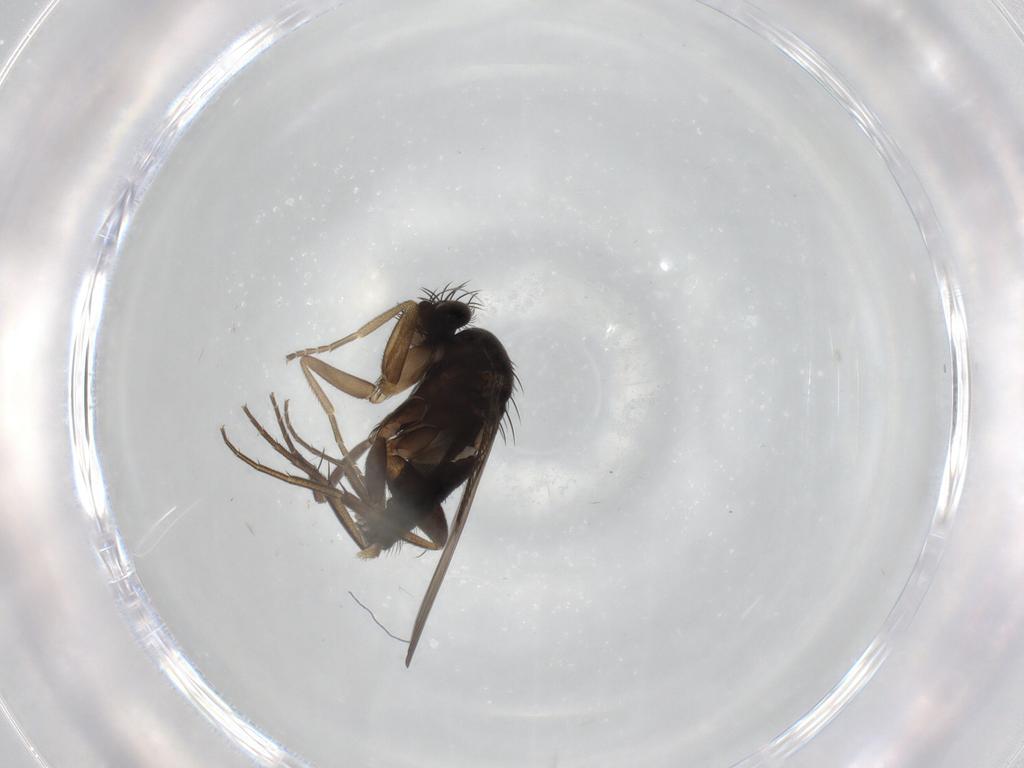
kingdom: Animalia
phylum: Arthropoda
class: Insecta
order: Diptera
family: Phoridae
